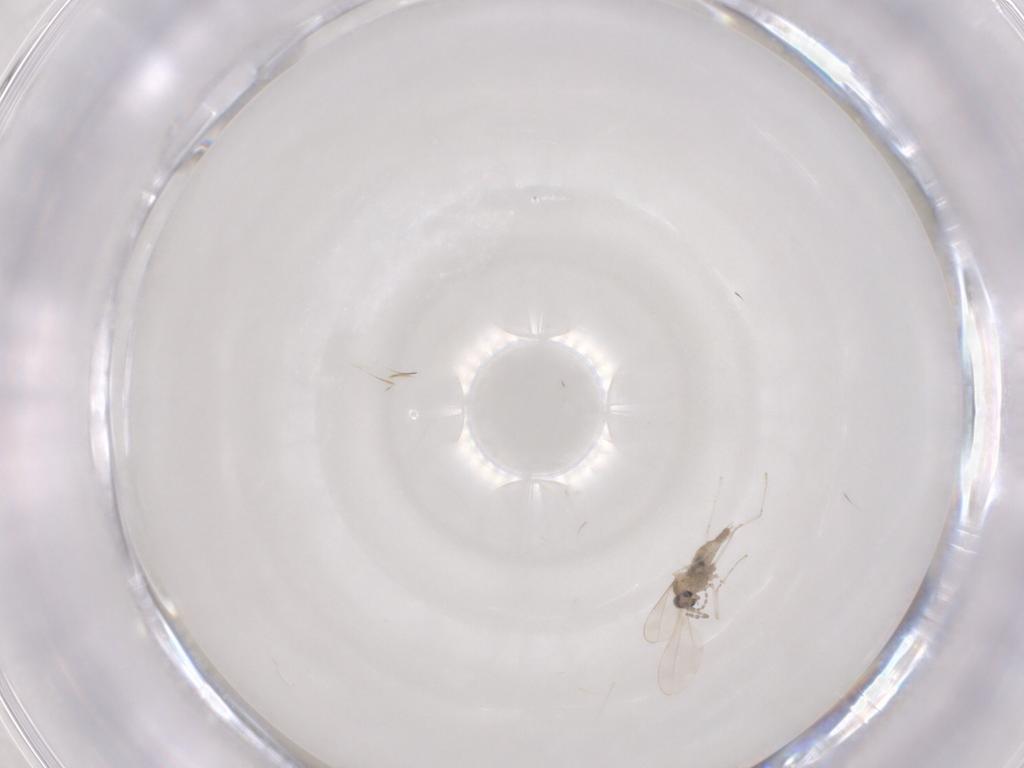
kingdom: Animalia
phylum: Arthropoda
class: Insecta
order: Diptera
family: Cecidomyiidae
